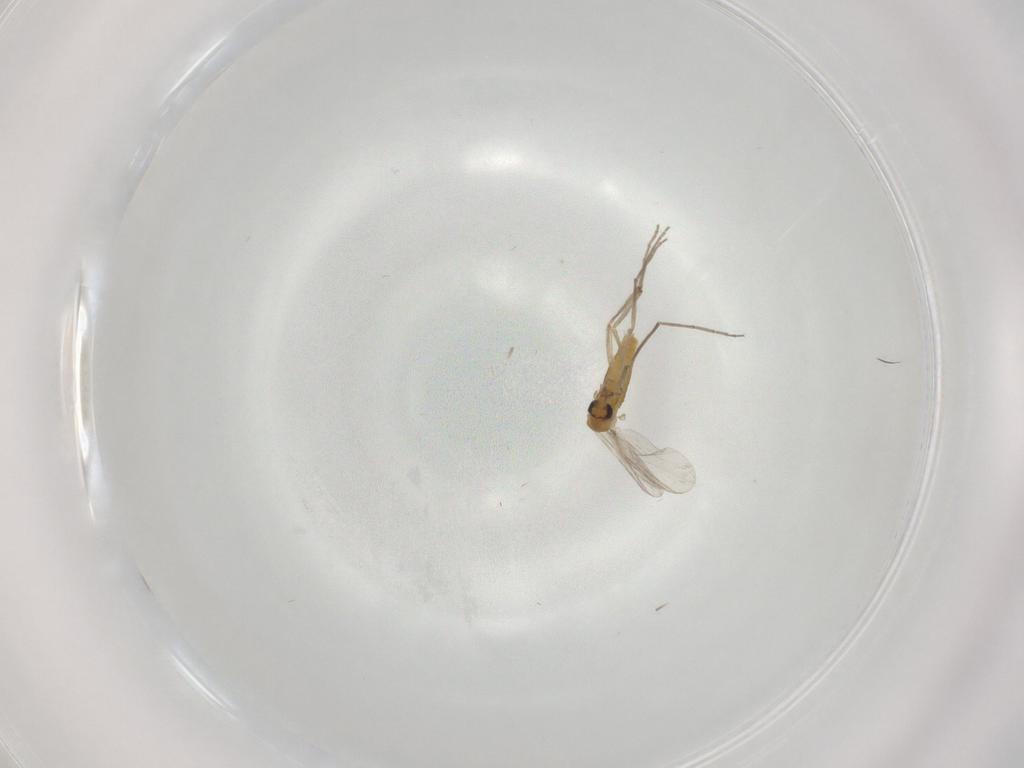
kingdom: Animalia
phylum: Arthropoda
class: Insecta
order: Diptera
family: Chironomidae
